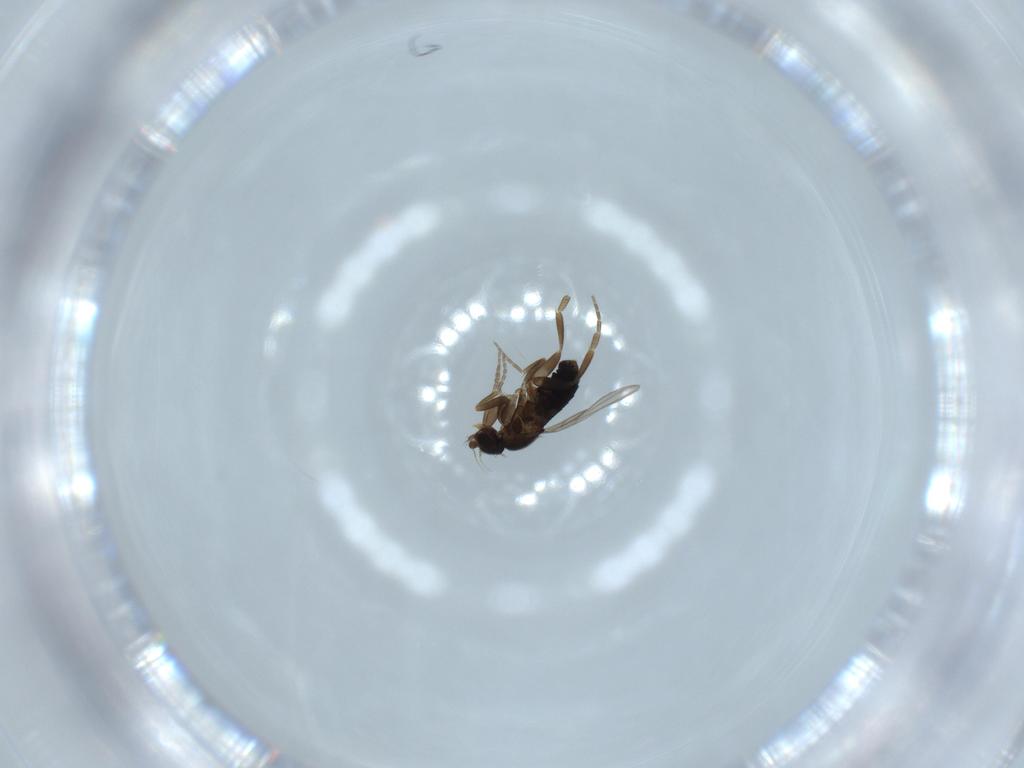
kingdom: Animalia
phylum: Arthropoda
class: Insecta
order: Diptera
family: Phoridae
